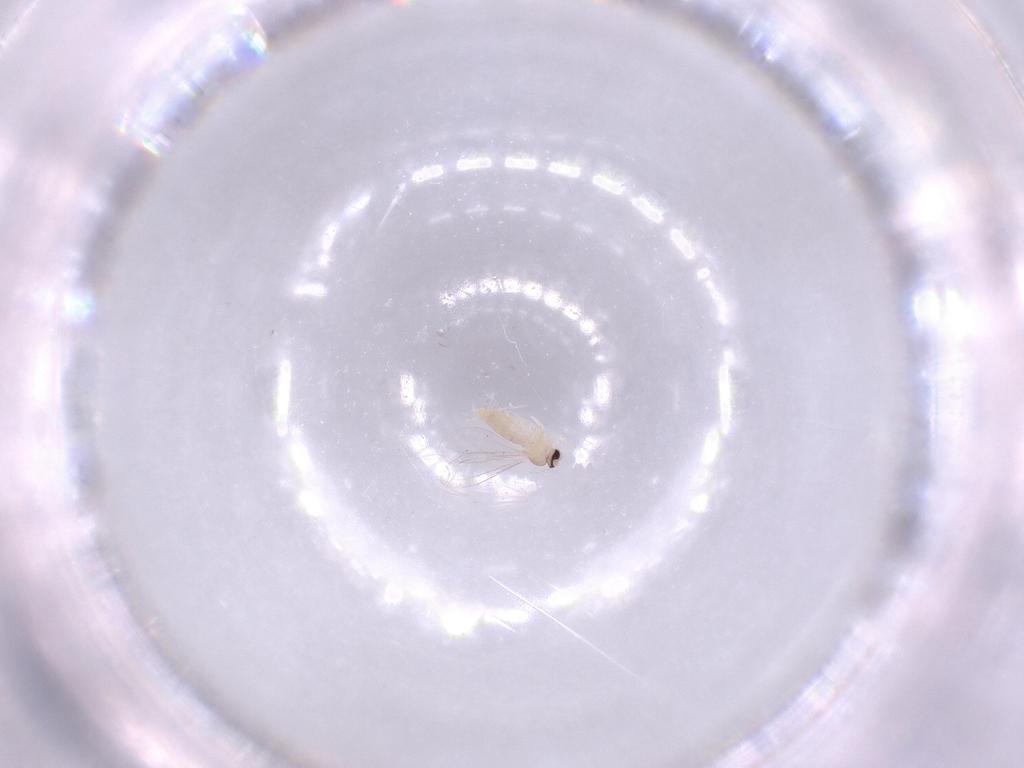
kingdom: Animalia
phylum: Arthropoda
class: Insecta
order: Diptera
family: Cecidomyiidae
